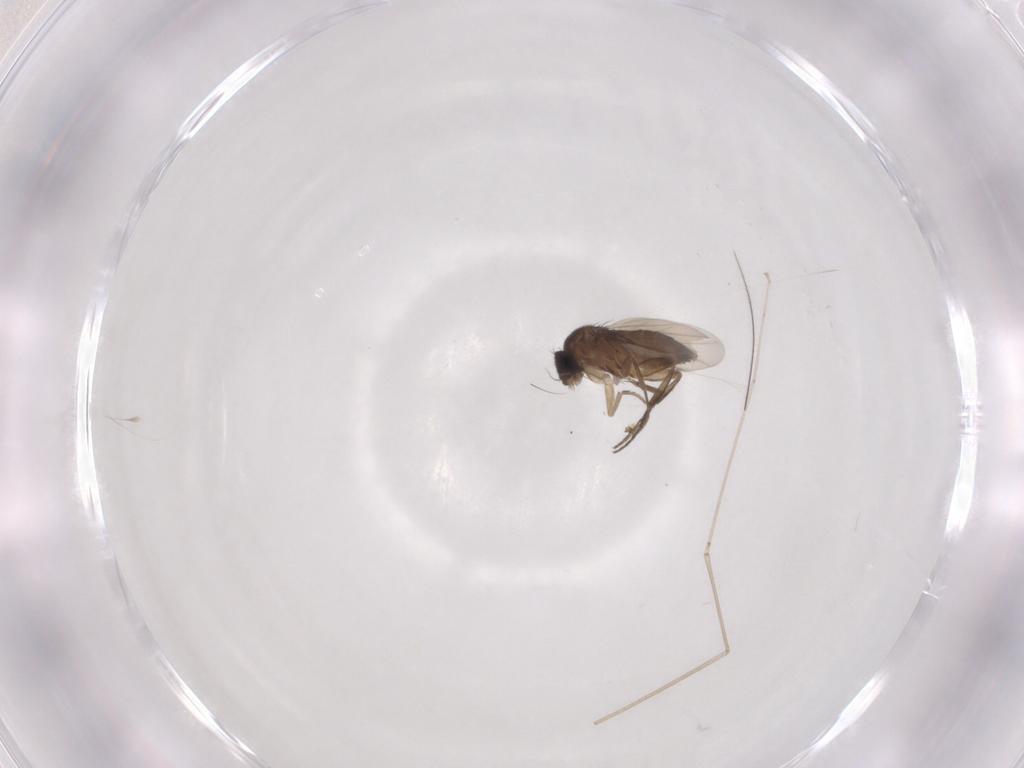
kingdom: Animalia
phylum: Arthropoda
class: Insecta
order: Diptera
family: Phoridae
